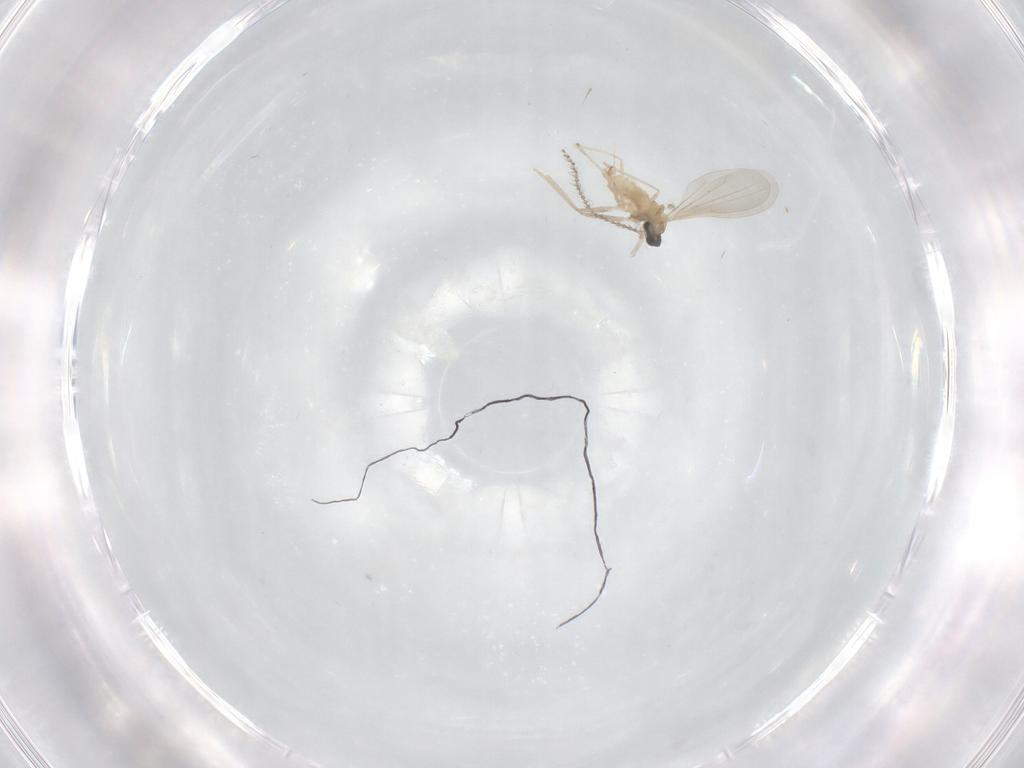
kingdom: Animalia
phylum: Arthropoda
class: Insecta
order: Diptera
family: Cecidomyiidae
